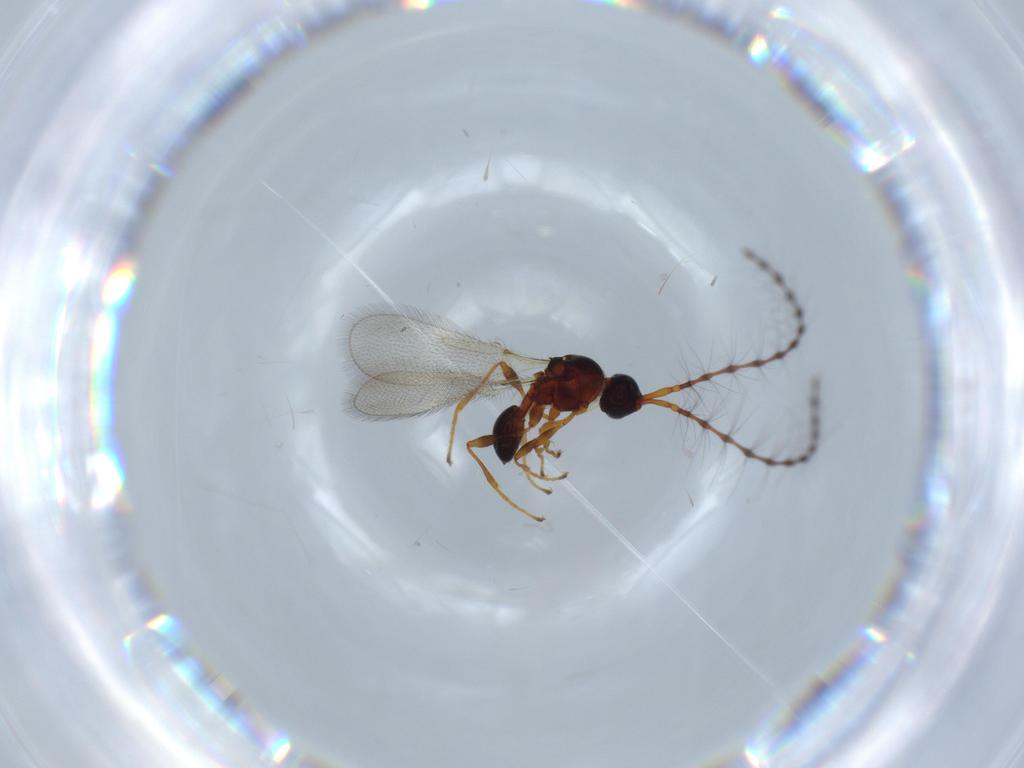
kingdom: Animalia
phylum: Arthropoda
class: Insecta
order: Hymenoptera
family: Diapriidae
